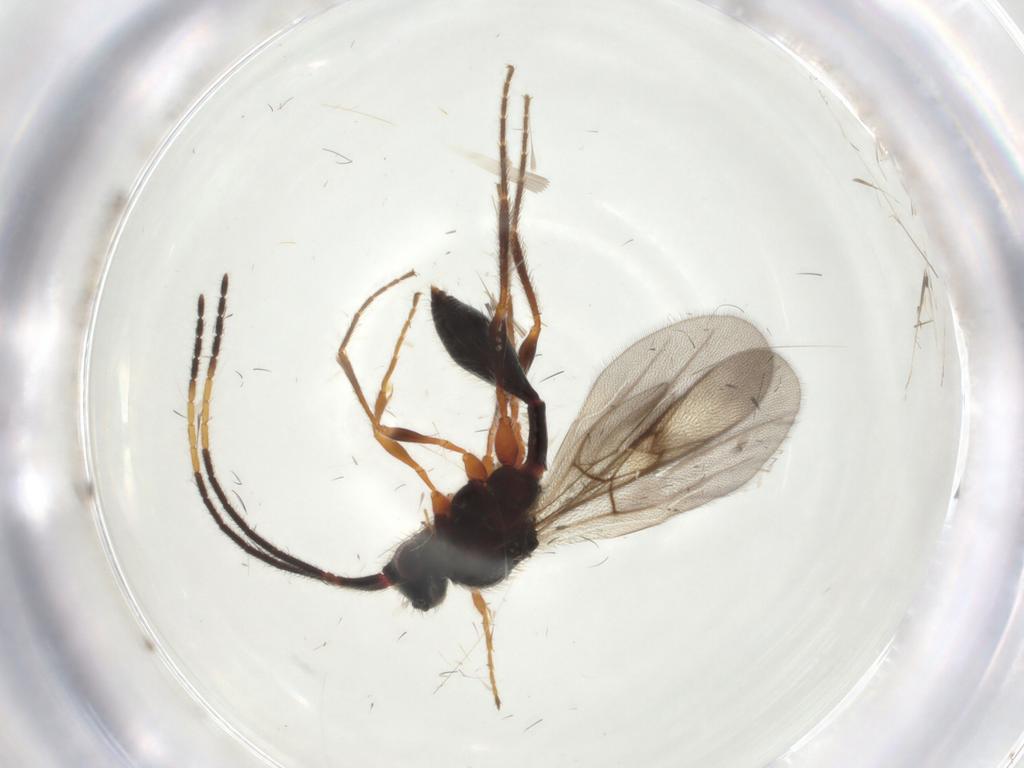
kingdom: Animalia
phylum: Arthropoda
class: Insecta
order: Hymenoptera
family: Diapriidae
